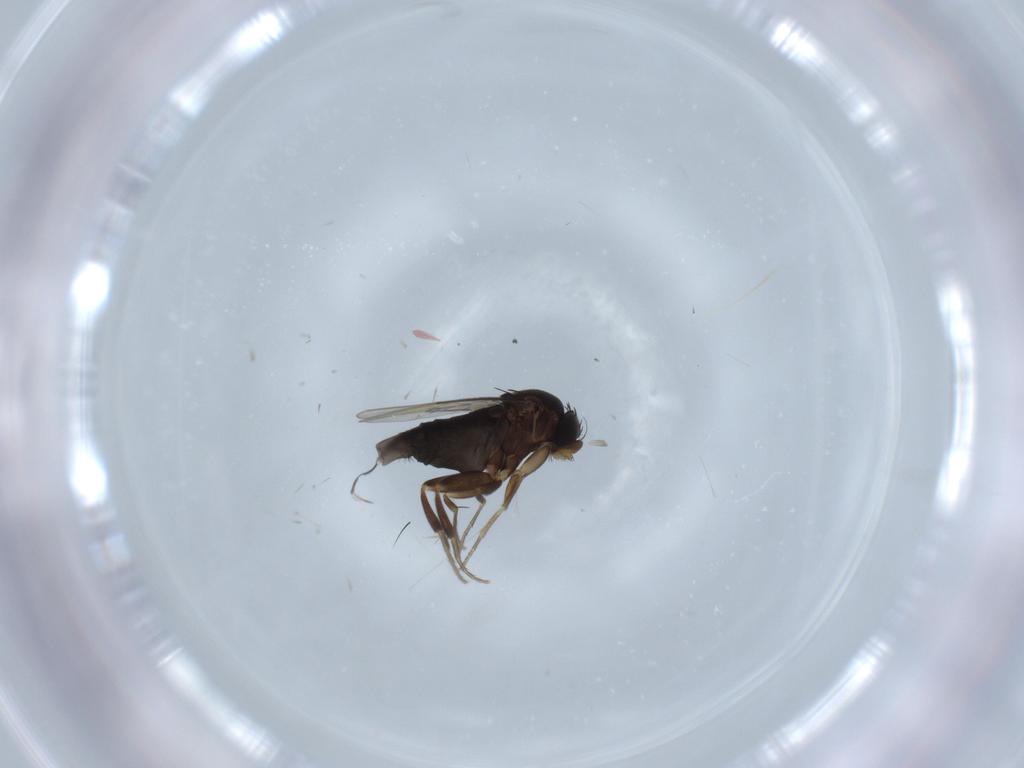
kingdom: Animalia
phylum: Arthropoda
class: Insecta
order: Diptera
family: Phoridae
